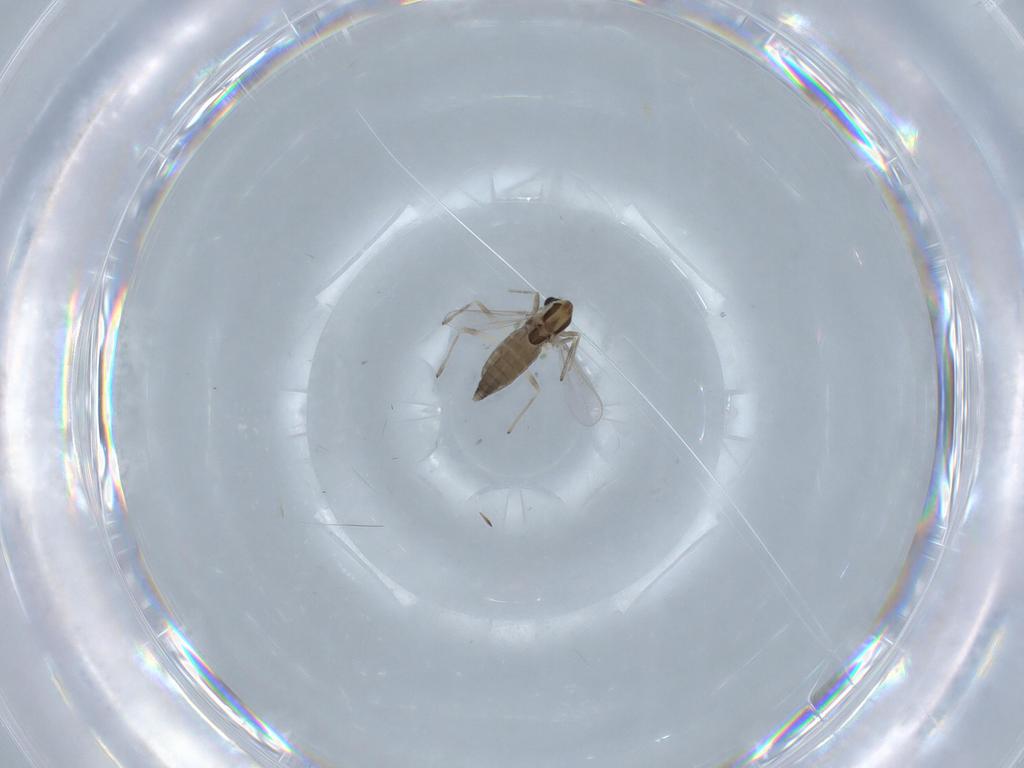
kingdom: Animalia
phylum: Arthropoda
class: Insecta
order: Diptera
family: Chironomidae
